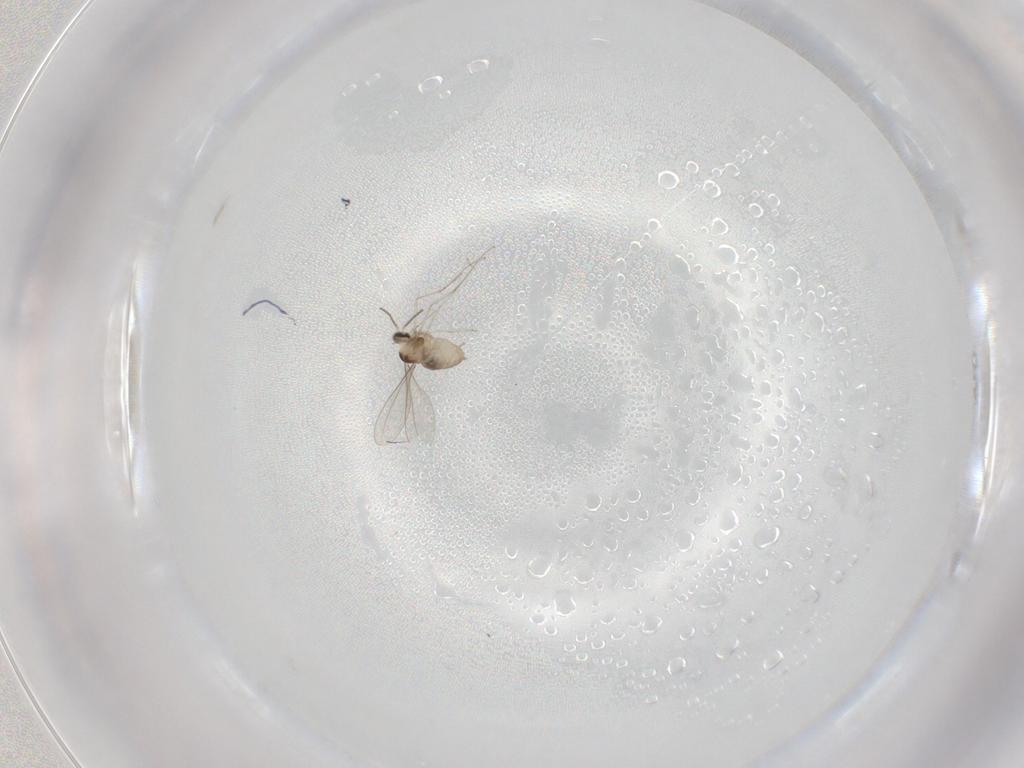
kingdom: Animalia
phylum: Arthropoda
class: Insecta
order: Diptera
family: Cecidomyiidae
